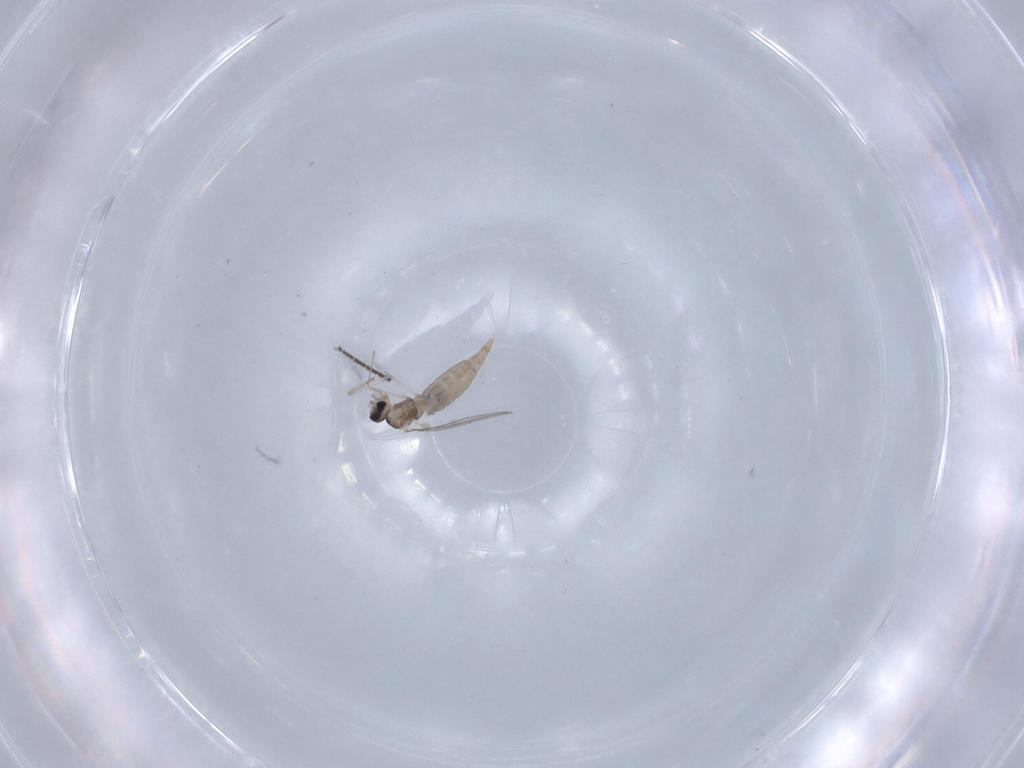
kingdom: Animalia
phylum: Arthropoda
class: Insecta
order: Diptera
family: Chironomidae
